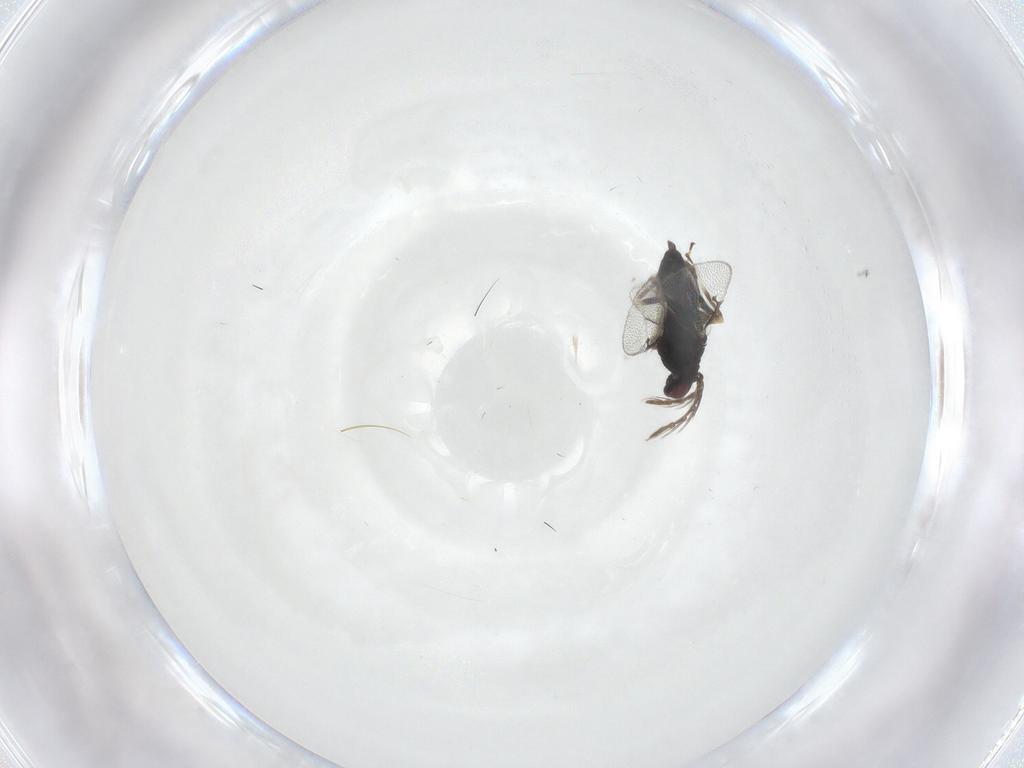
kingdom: Animalia
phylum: Arthropoda
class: Insecta
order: Hymenoptera
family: Eulophidae
